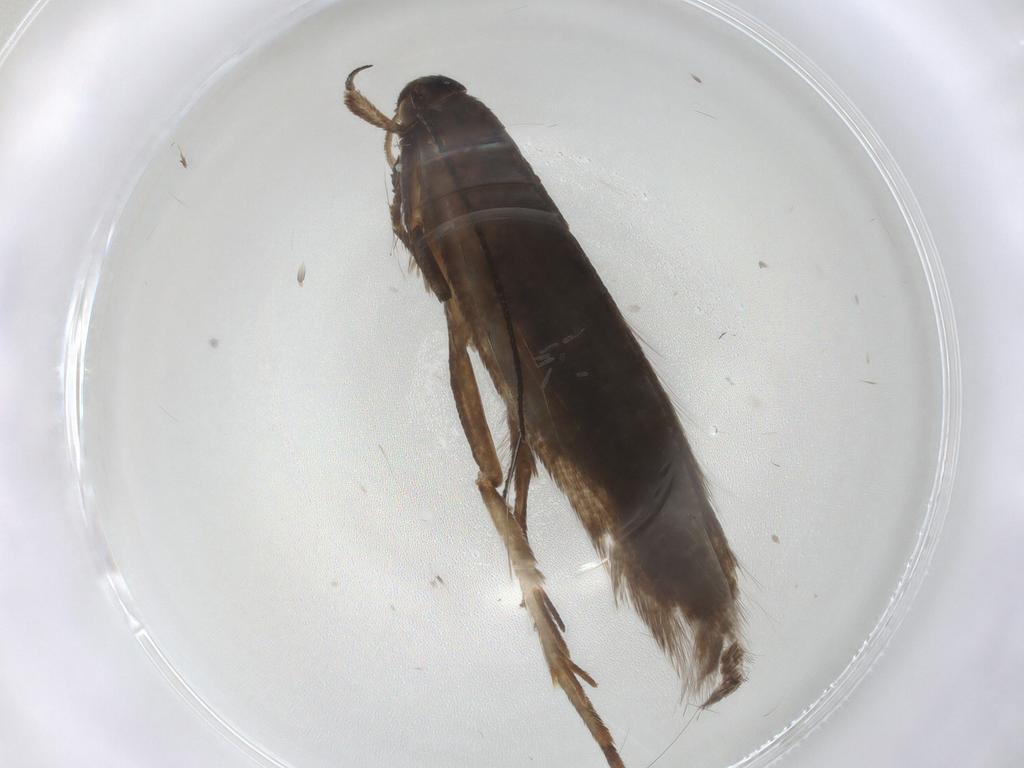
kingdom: Animalia
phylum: Arthropoda
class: Insecta
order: Lepidoptera
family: Gelechiidae
